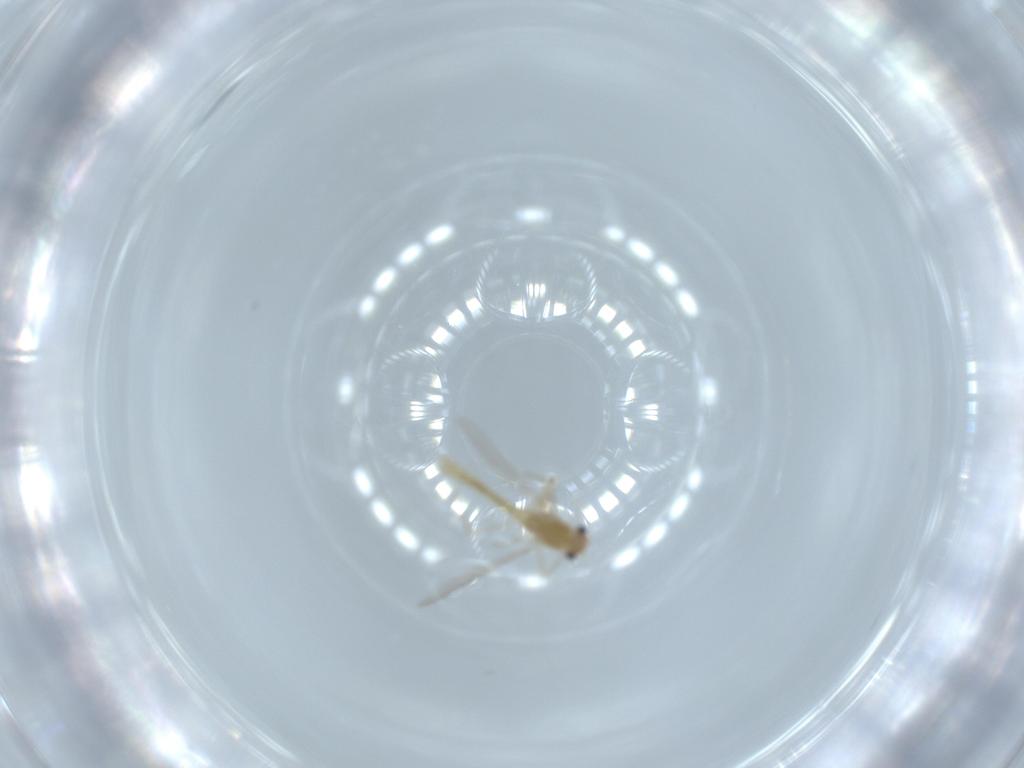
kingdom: Animalia
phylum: Arthropoda
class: Insecta
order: Diptera
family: Chironomidae
